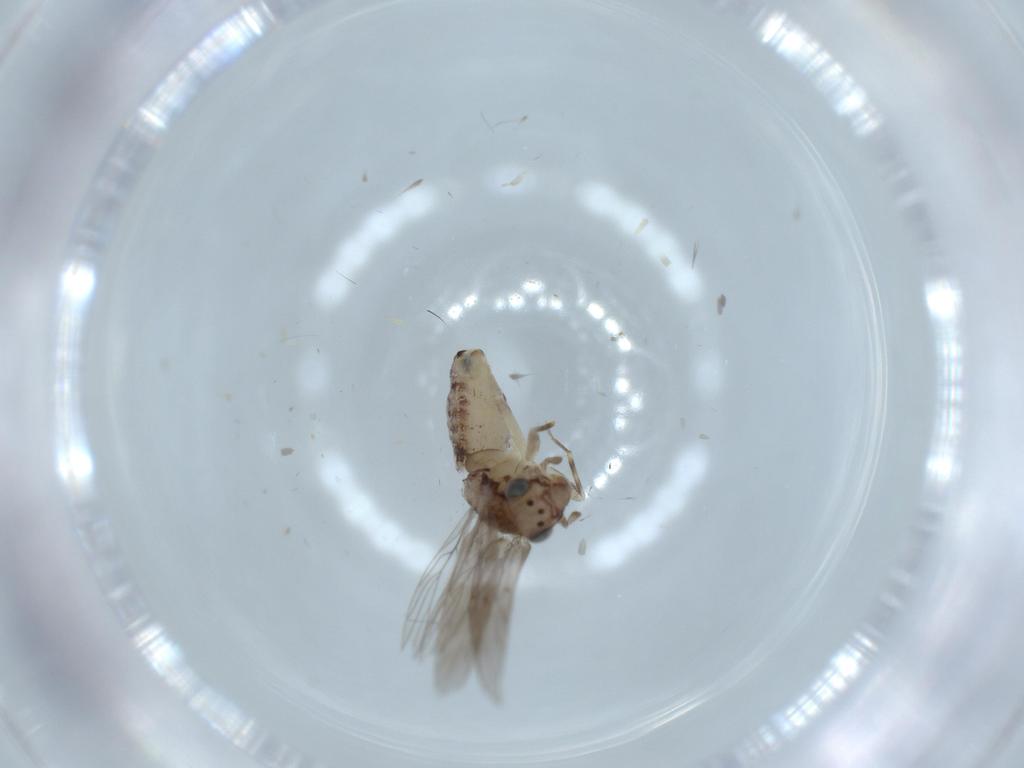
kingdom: Animalia
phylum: Arthropoda
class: Insecta
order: Psocodea
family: Lepidopsocidae
